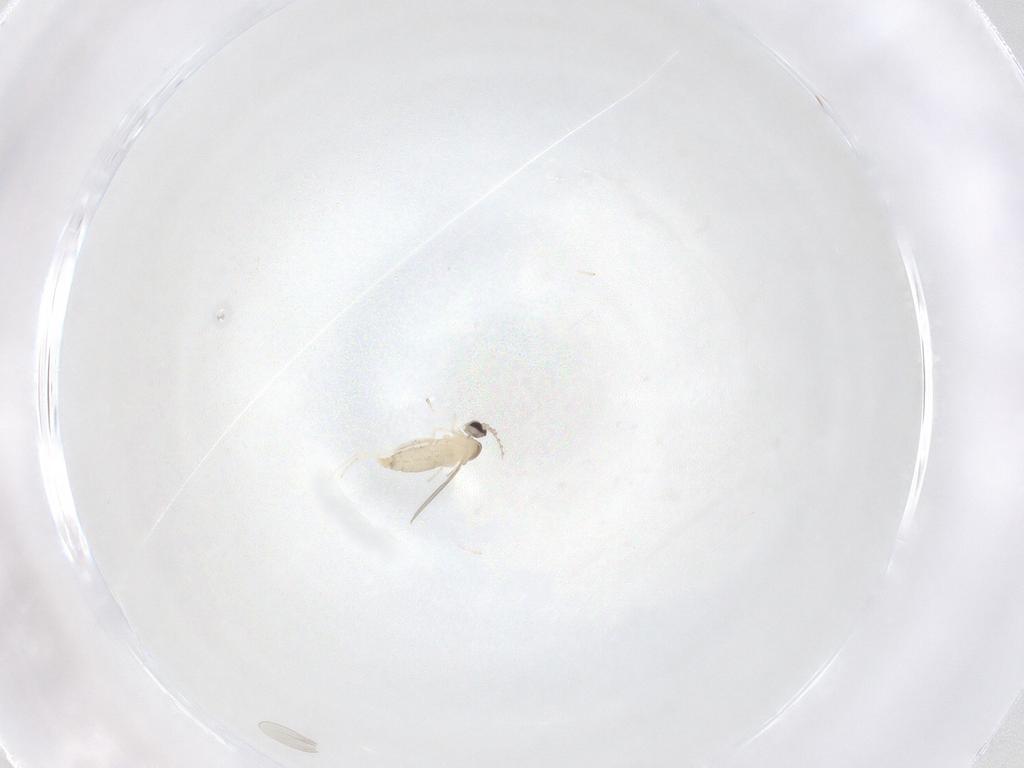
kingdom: Animalia
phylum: Arthropoda
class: Insecta
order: Diptera
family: Cecidomyiidae
